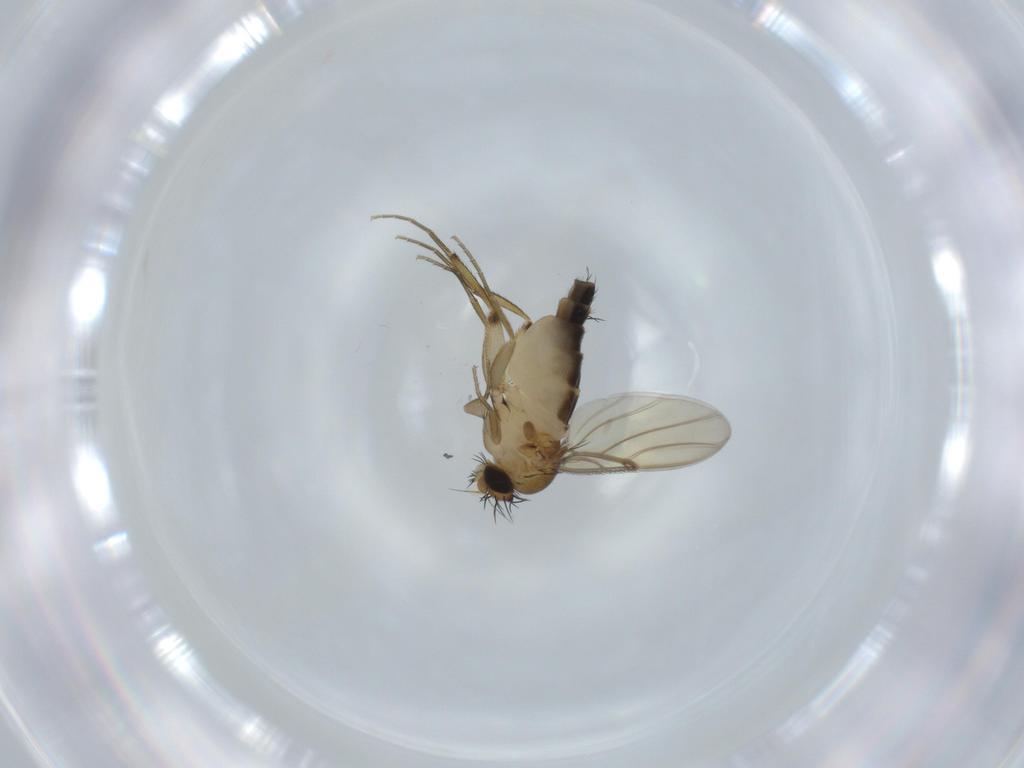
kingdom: Animalia
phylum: Arthropoda
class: Insecta
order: Diptera
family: Phoridae
